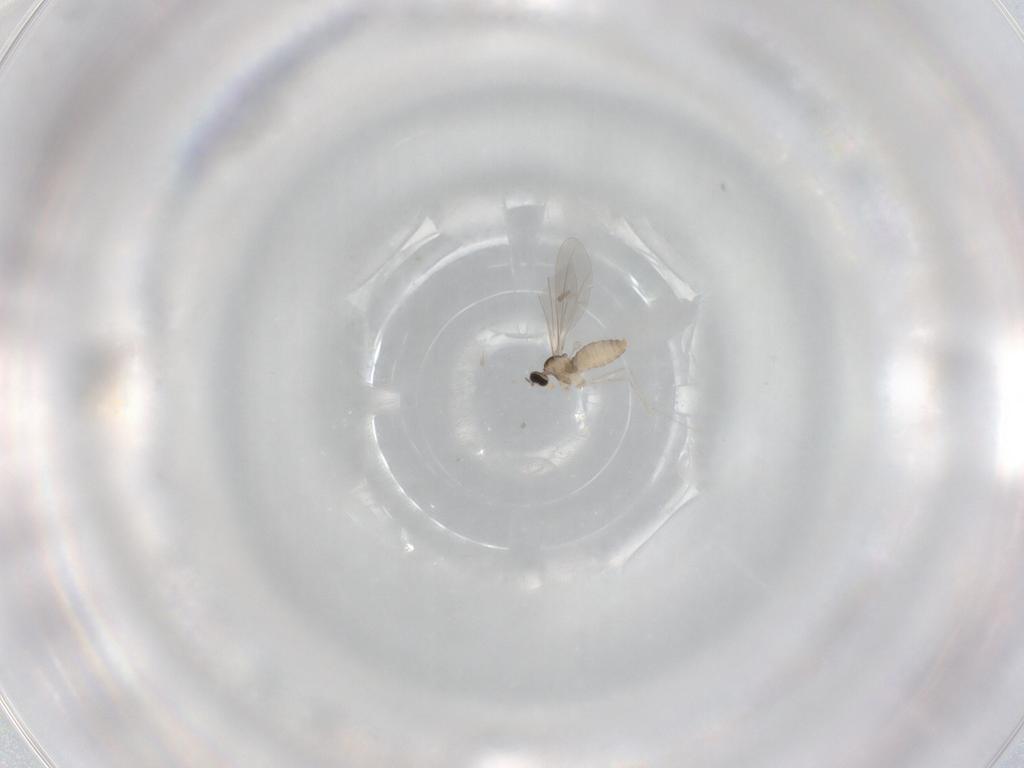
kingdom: Animalia
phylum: Arthropoda
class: Insecta
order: Diptera
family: Cecidomyiidae
